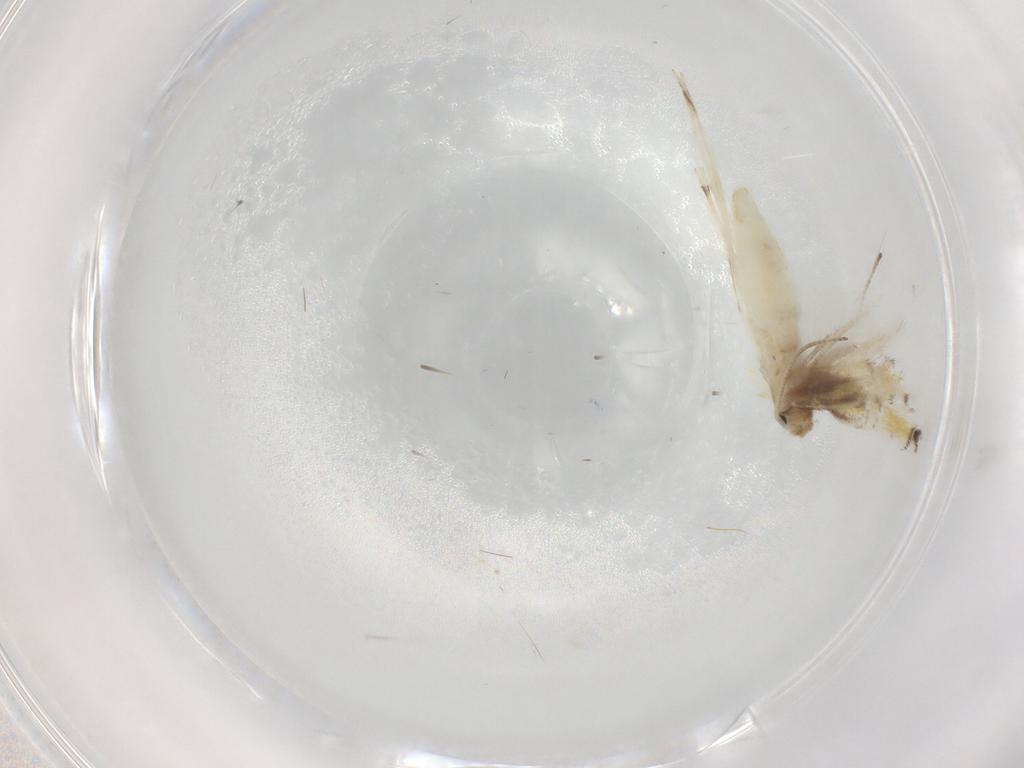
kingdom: Animalia
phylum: Arthropoda
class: Insecta
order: Lepidoptera
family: Gracillariidae
